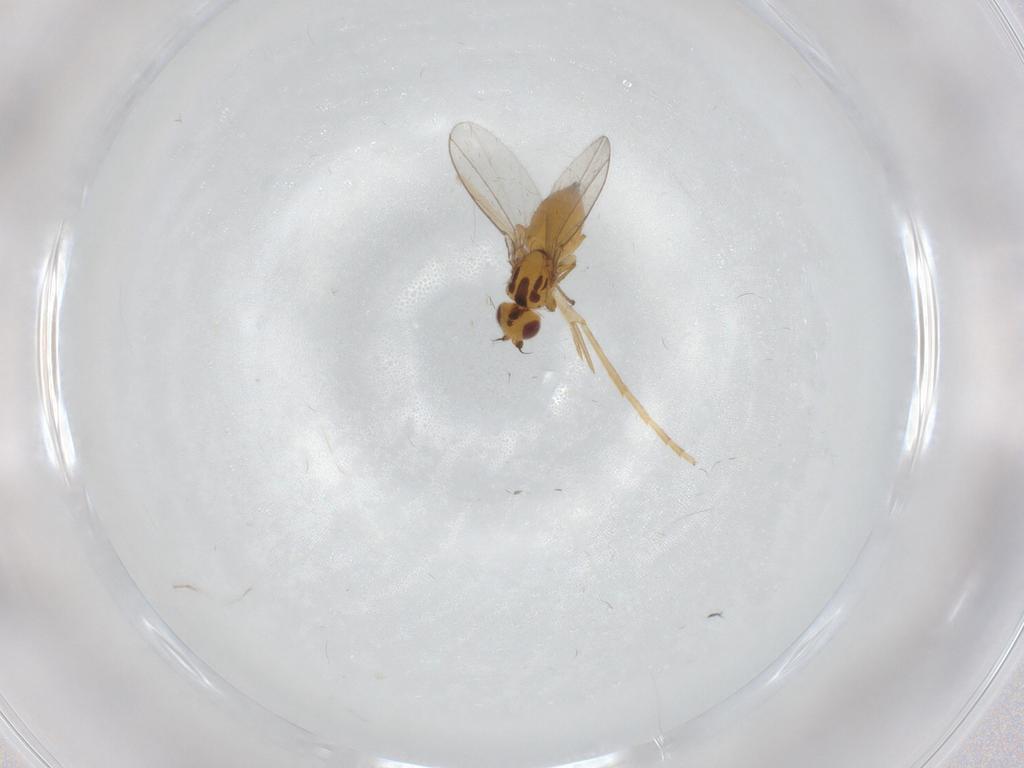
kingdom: Animalia
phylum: Arthropoda
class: Insecta
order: Diptera
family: Chloropidae
